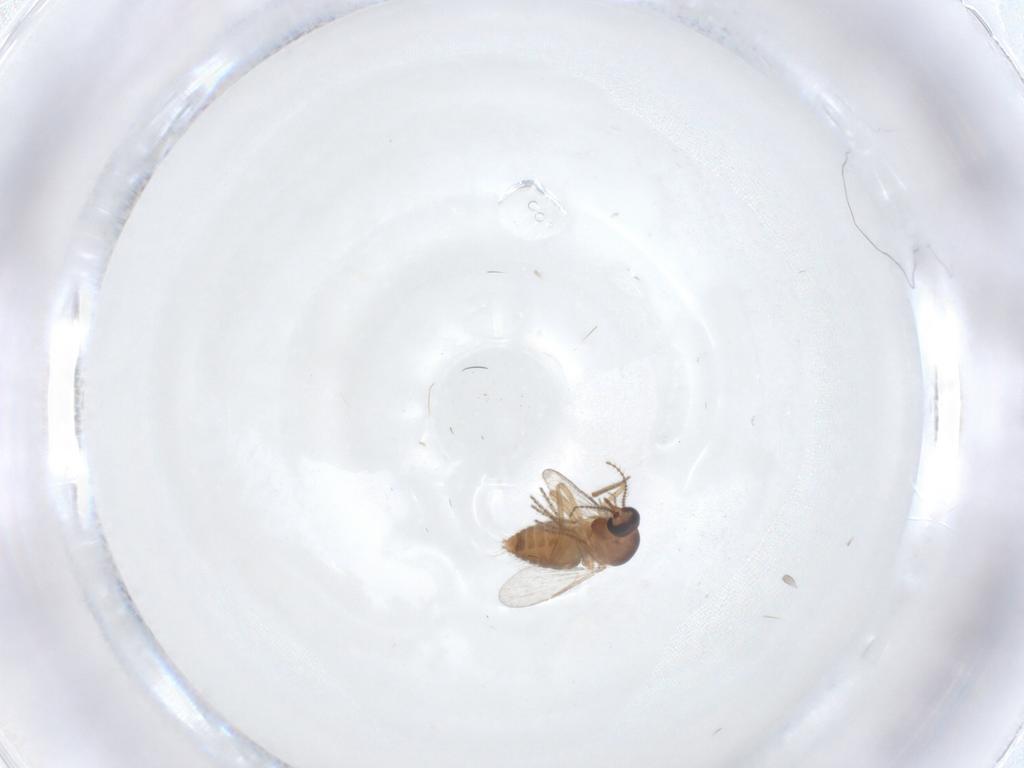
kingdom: Animalia
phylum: Arthropoda
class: Insecta
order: Diptera
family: Ceratopogonidae
